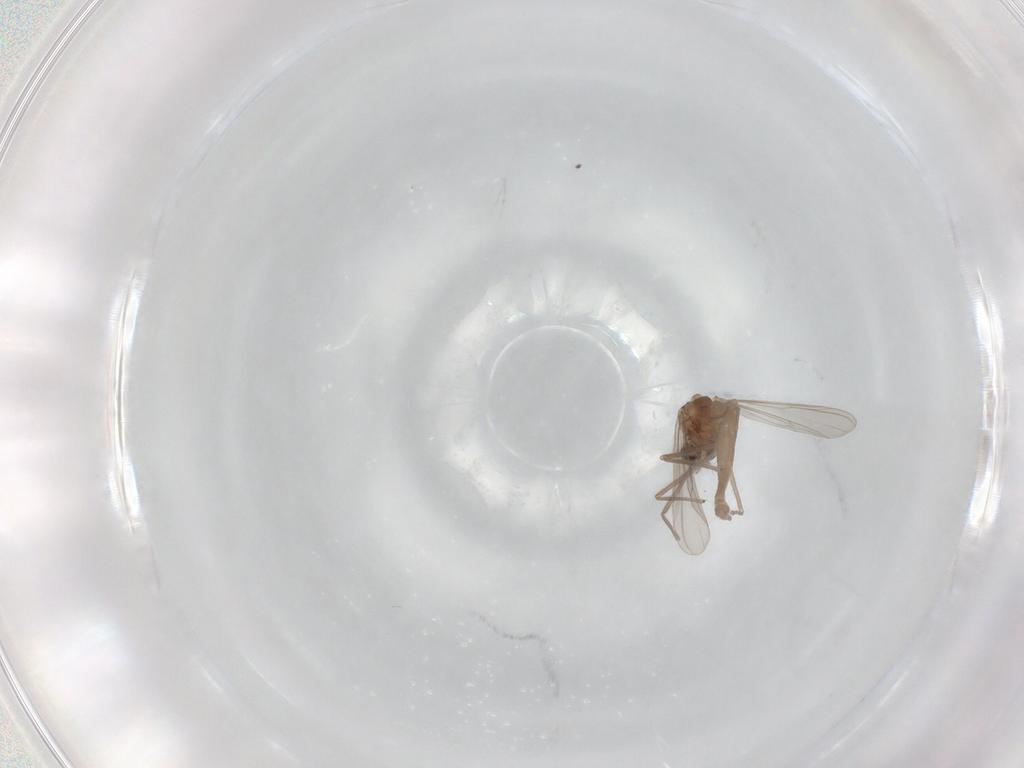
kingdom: Animalia
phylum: Arthropoda
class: Insecta
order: Diptera
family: Chironomidae
